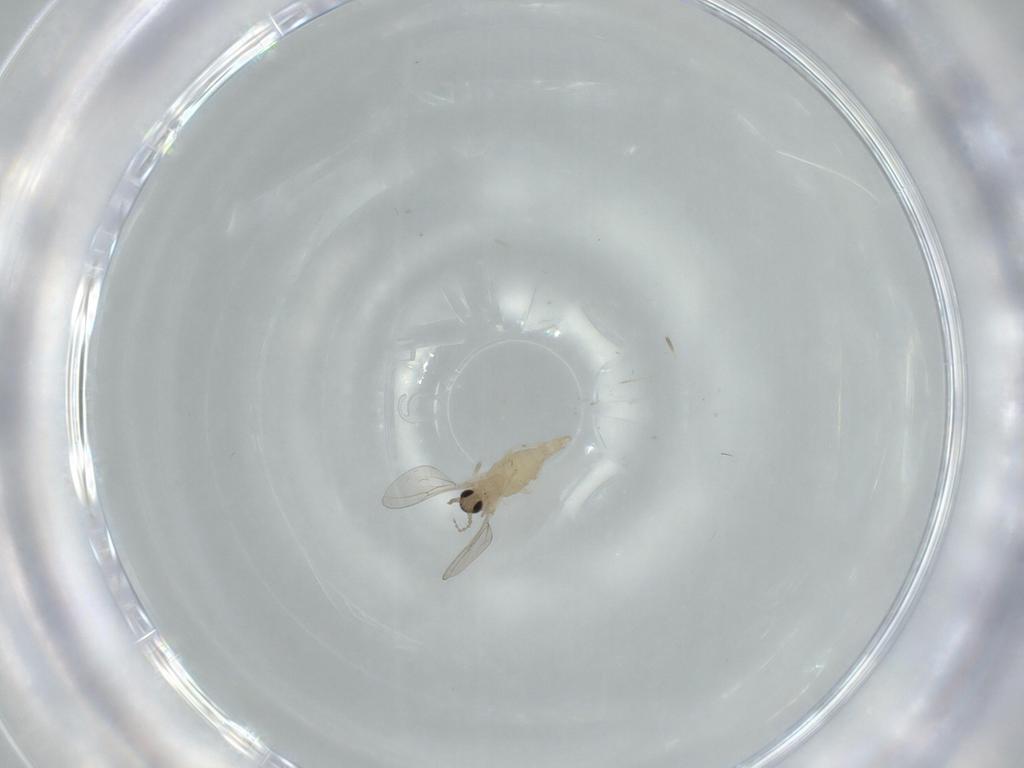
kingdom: Animalia
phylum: Arthropoda
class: Insecta
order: Diptera
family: Cecidomyiidae
